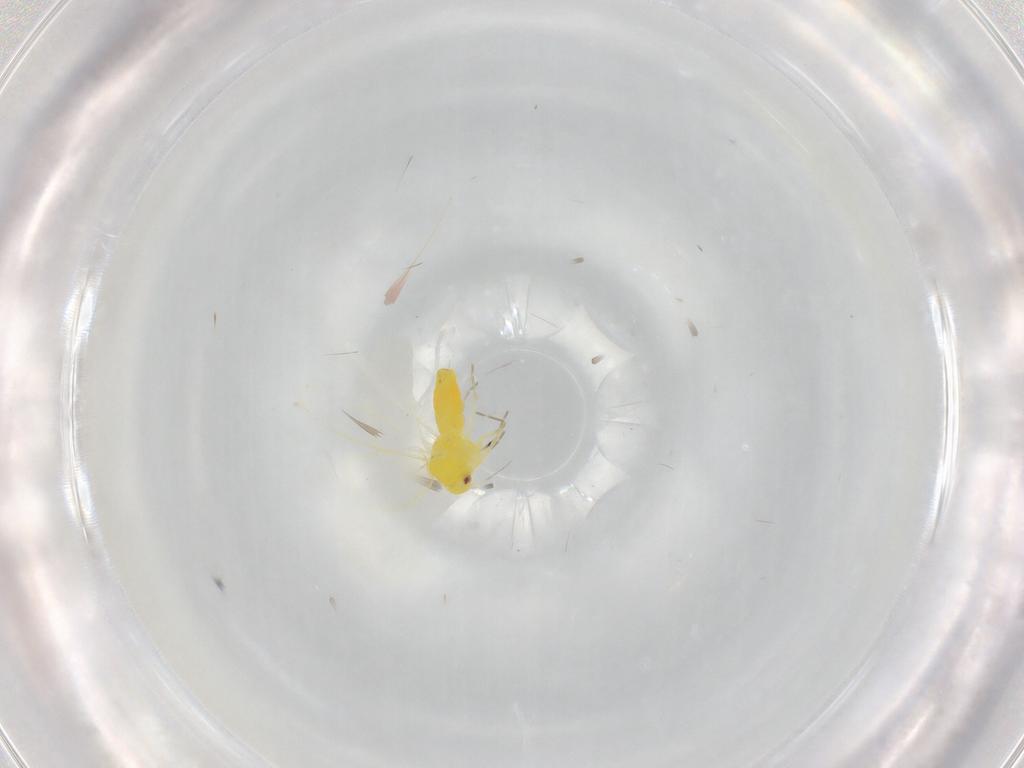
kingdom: Animalia
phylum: Arthropoda
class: Insecta
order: Hemiptera
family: Aleyrodidae
